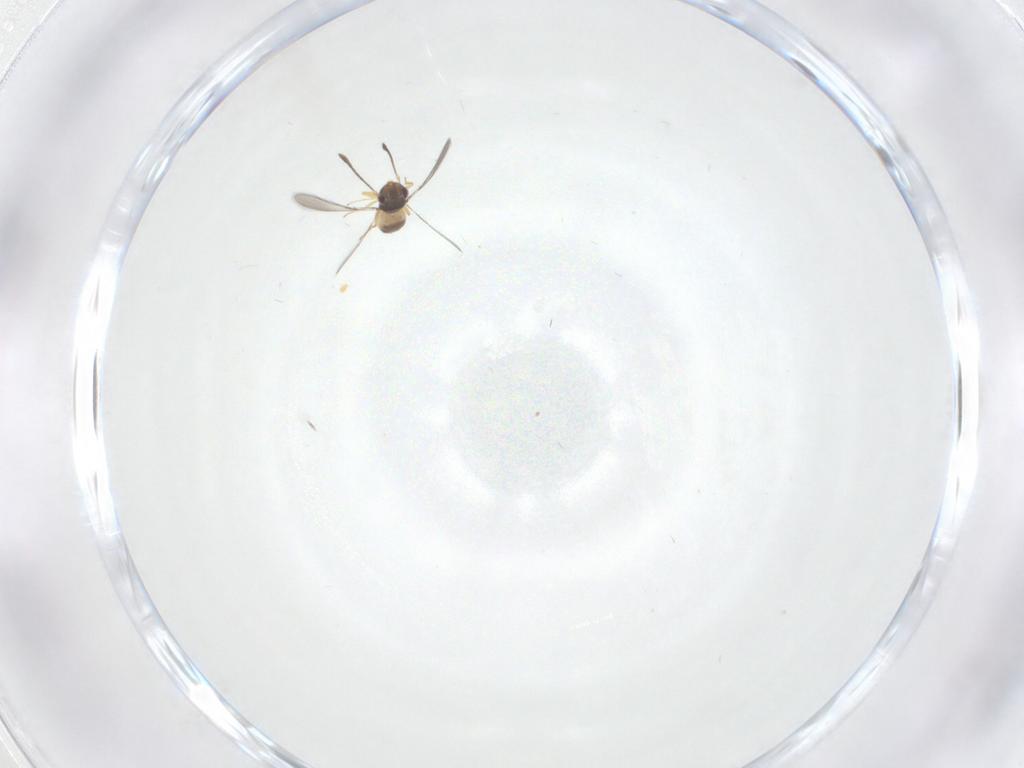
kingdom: Animalia
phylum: Arthropoda
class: Insecta
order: Hymenoptera
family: Mymaridae
